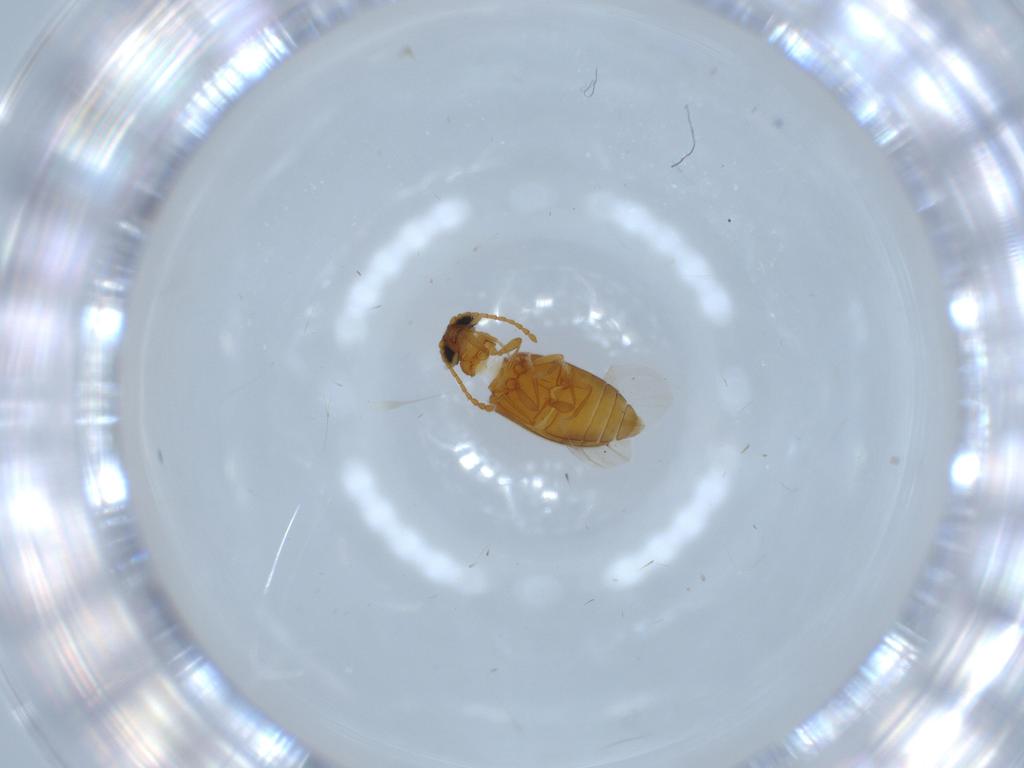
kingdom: Animalia
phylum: Arthropoda
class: Insecta
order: Coleoptera
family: Aderidae
